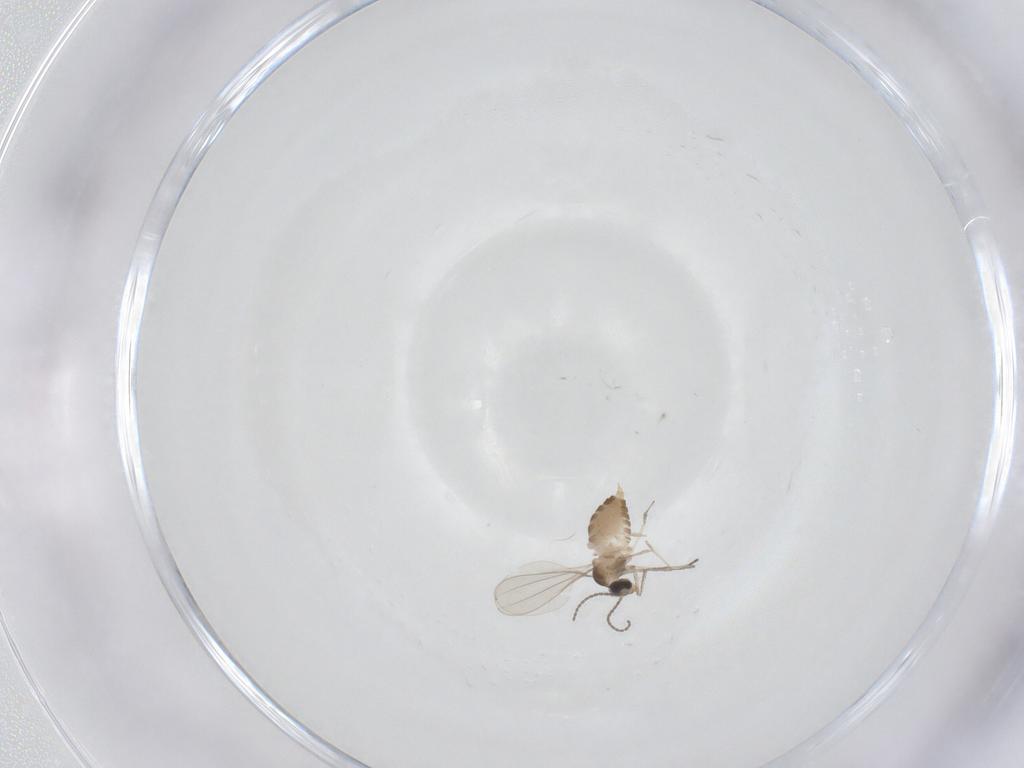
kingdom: Animalia
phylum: Arthropoda
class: Insecta
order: Diptera
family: Cecidomyiidae
